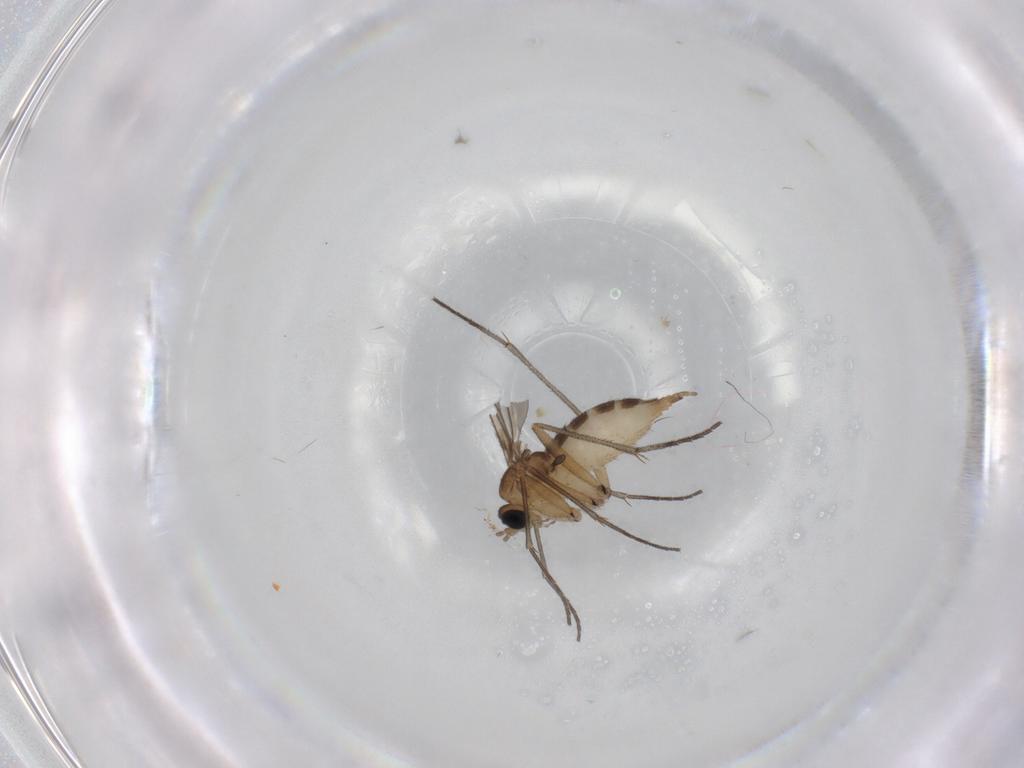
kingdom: Animalia
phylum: Arthropoda
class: Insecta
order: Diptera
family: Sciaridae
